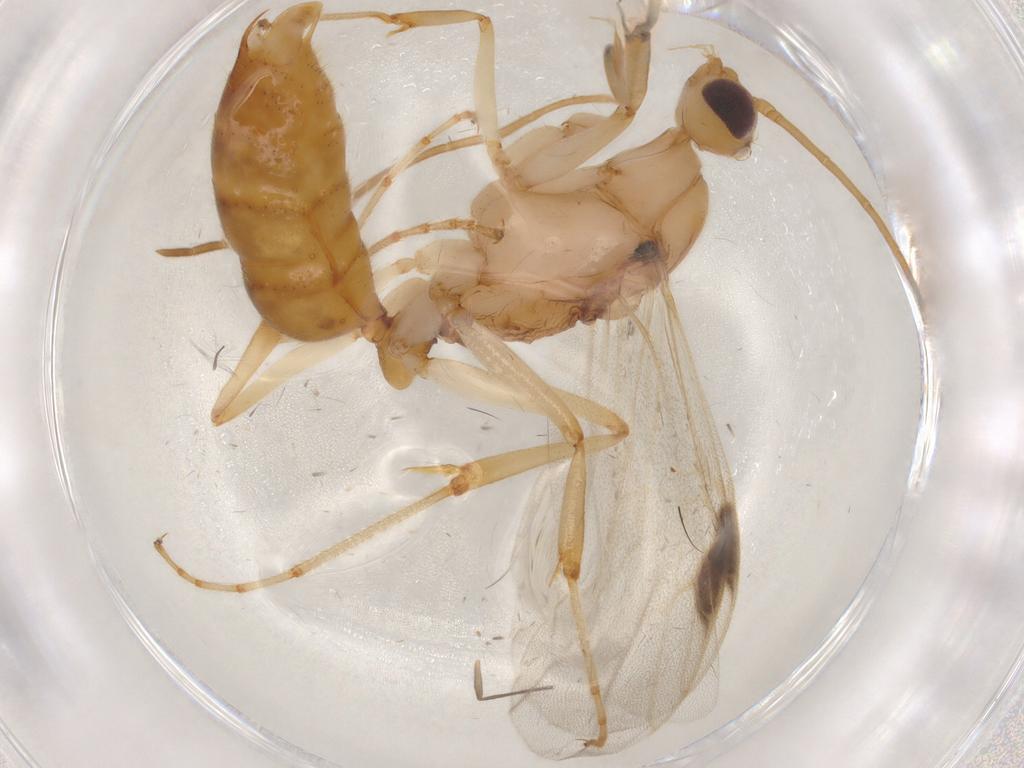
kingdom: Animalia
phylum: Arthropoda
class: Insecta
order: Hymenoptera
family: Formicidae
